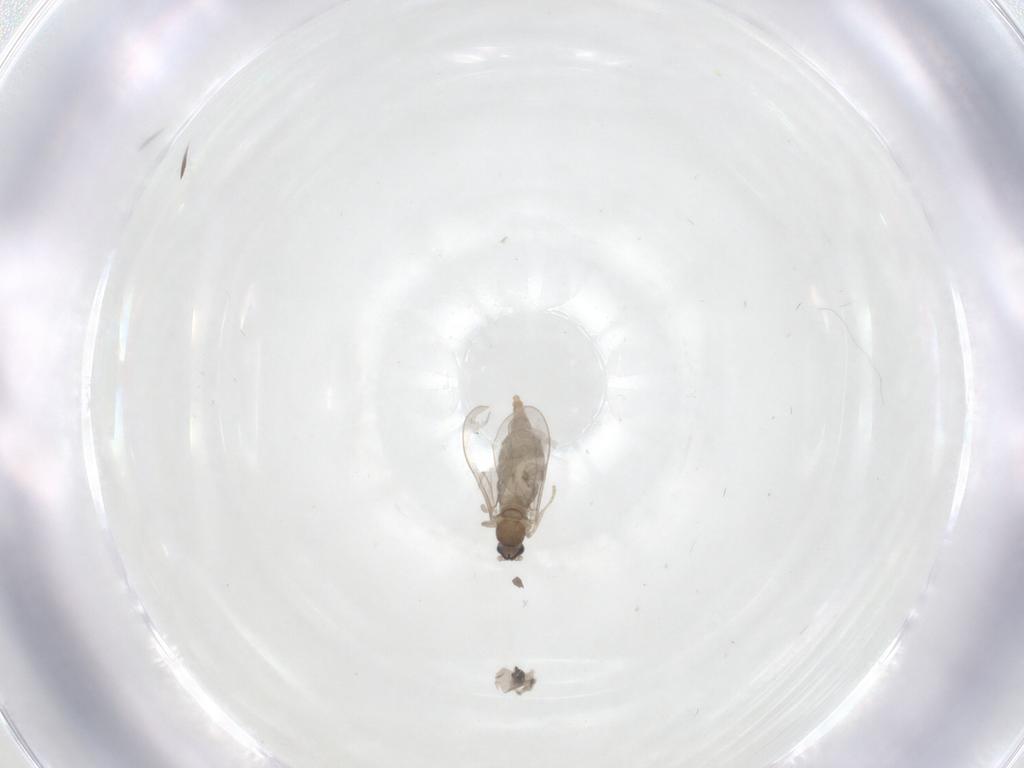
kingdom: Animalia
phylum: Arthropoda
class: Insecta
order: Diptera
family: Ceratopogonidae
